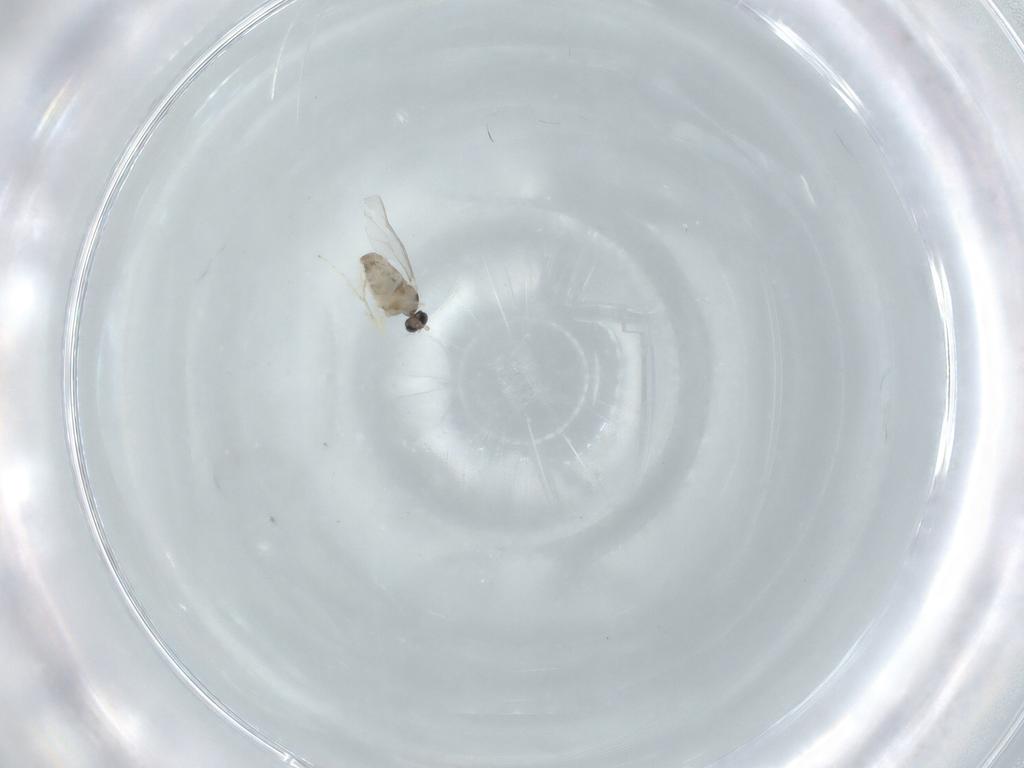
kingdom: Animalia
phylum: Arthropoda
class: Insecta
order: Diptera
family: Cecidomyiidae
